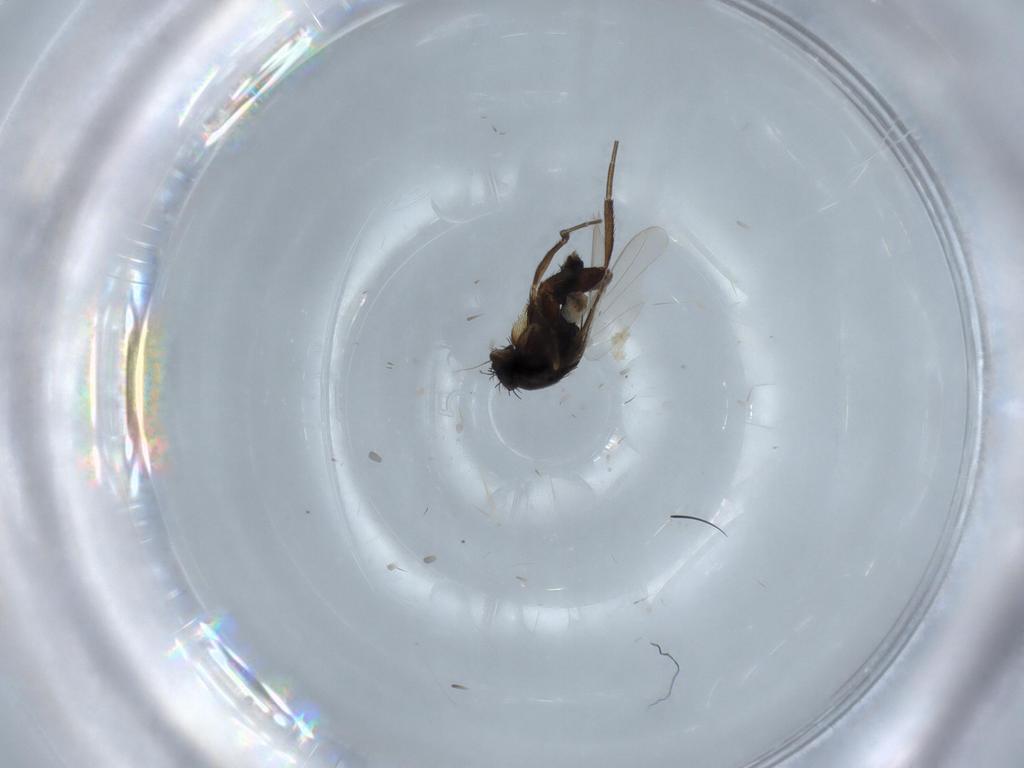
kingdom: Animalia
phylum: Arthropoda
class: Insecta
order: Diptera
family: Phoridae
